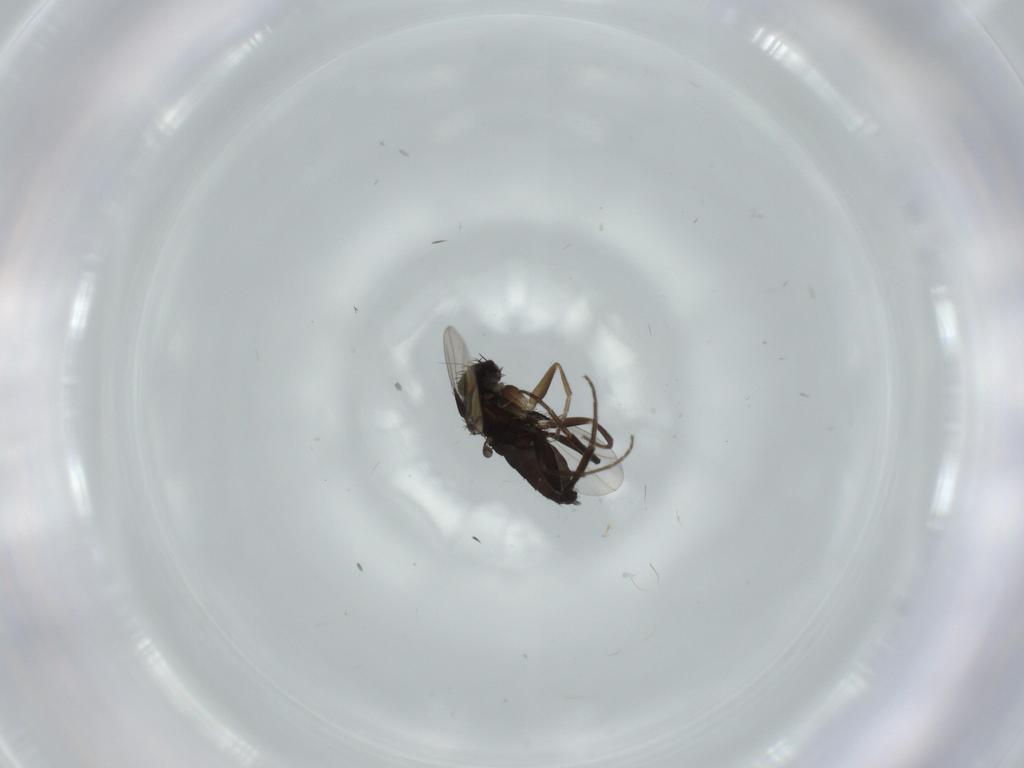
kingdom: Animalia
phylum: Arthropoda
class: Insecta
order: Diptera
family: Phoridae
